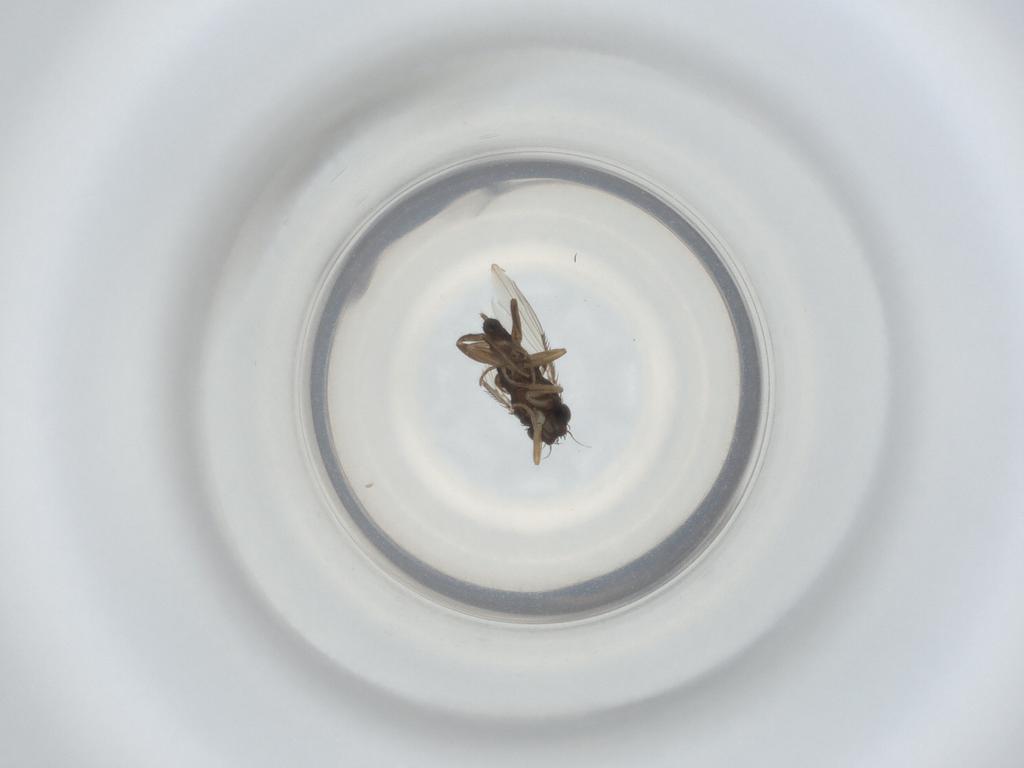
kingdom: Animalia
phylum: Arthropoda
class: Insecta
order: Diptera
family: Phoridae
